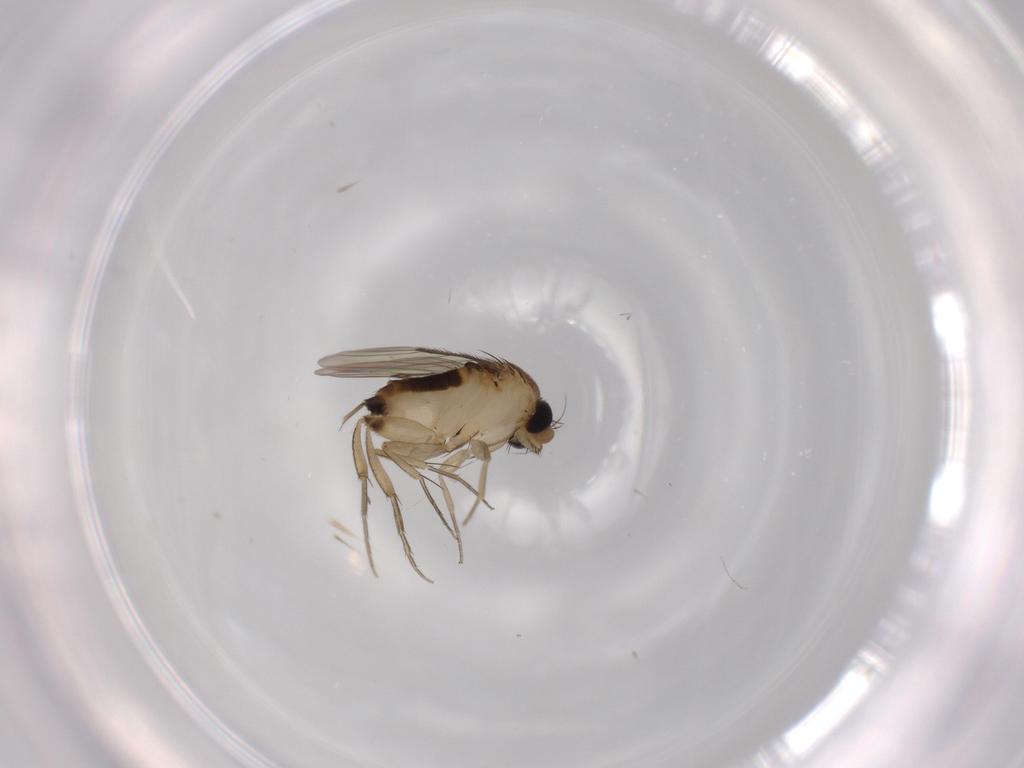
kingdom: Animalia
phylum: Arthropoda
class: Insecta
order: Diptera
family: Phoridae
